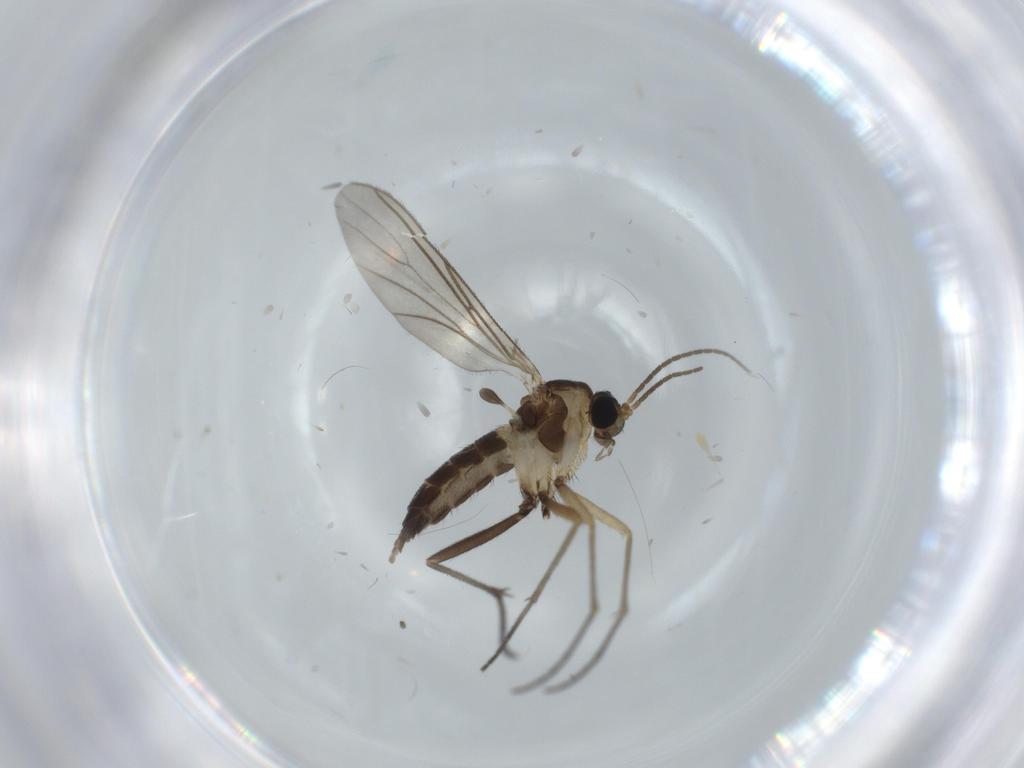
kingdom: Animalia
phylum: Arthropoda
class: Insecta
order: Diptera
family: Sciaridae
